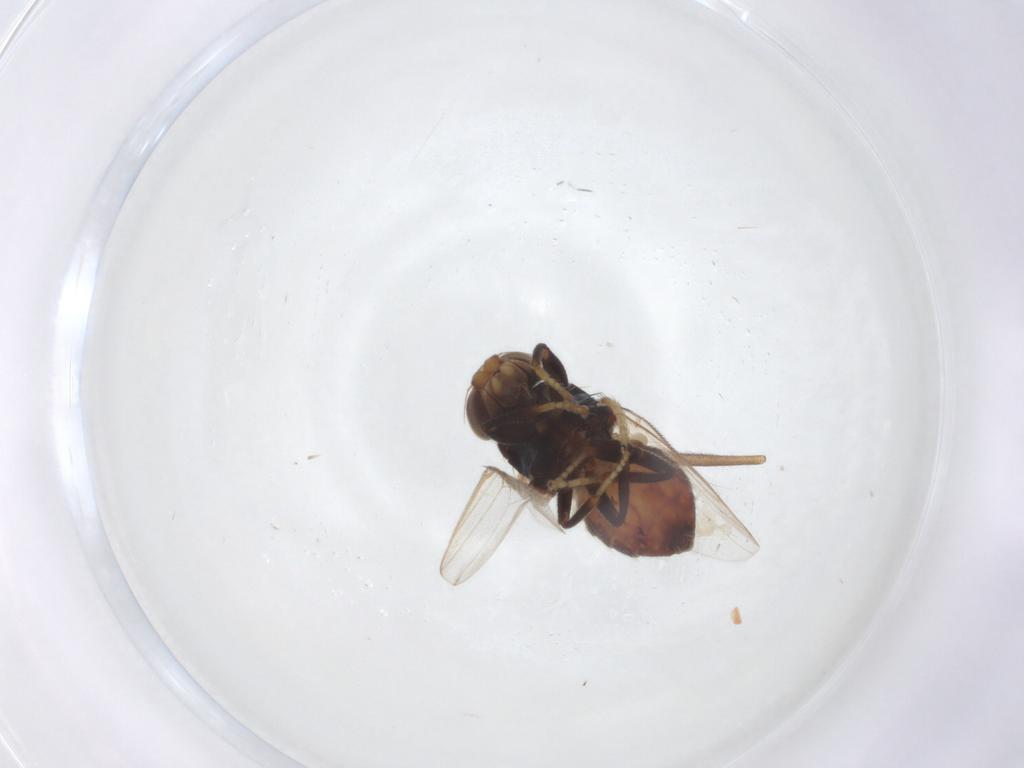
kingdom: Animalia
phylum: Arthropoda
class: Insecta
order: Diptera
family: Chloropidae
